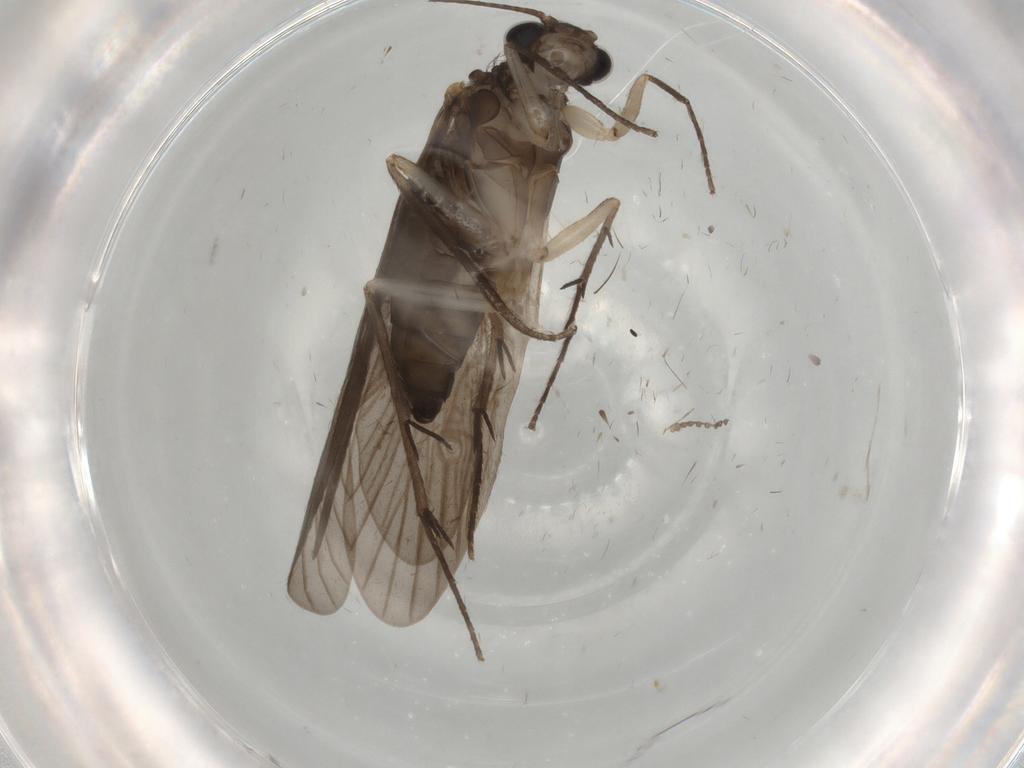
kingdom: Animalia
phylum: Arthropoda
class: Insecta
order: Trichoptera
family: Philopotamidae
